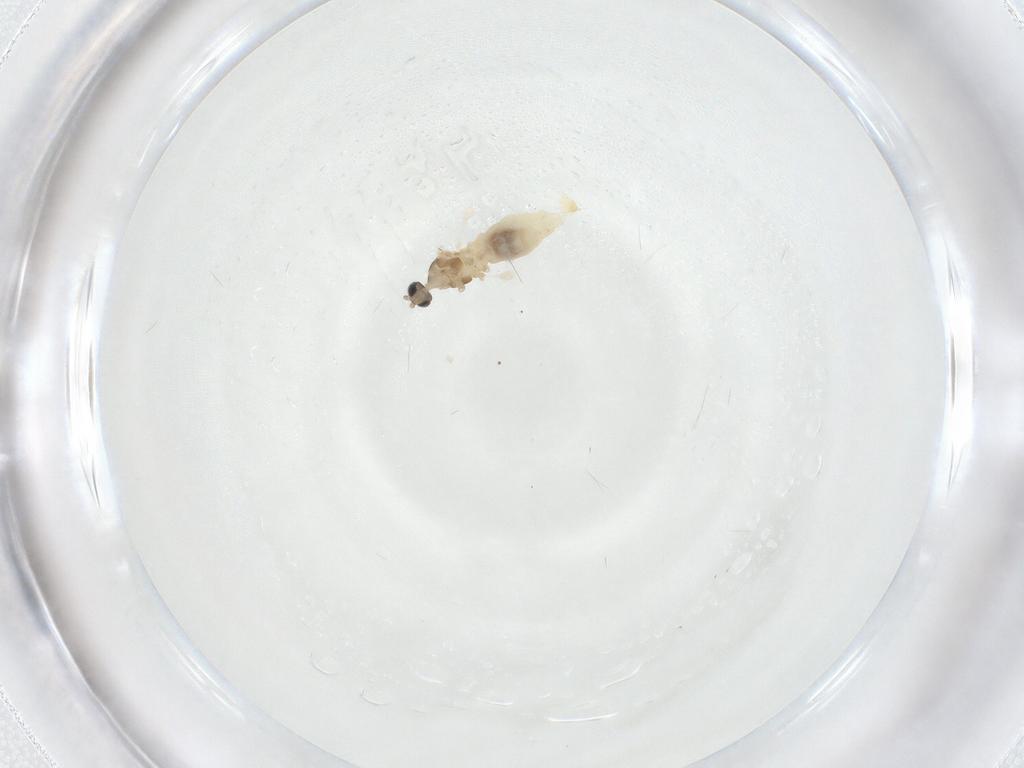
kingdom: Animalia
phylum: Arthropoda
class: Insecta
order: Diptera
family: Cecidomyiidae
